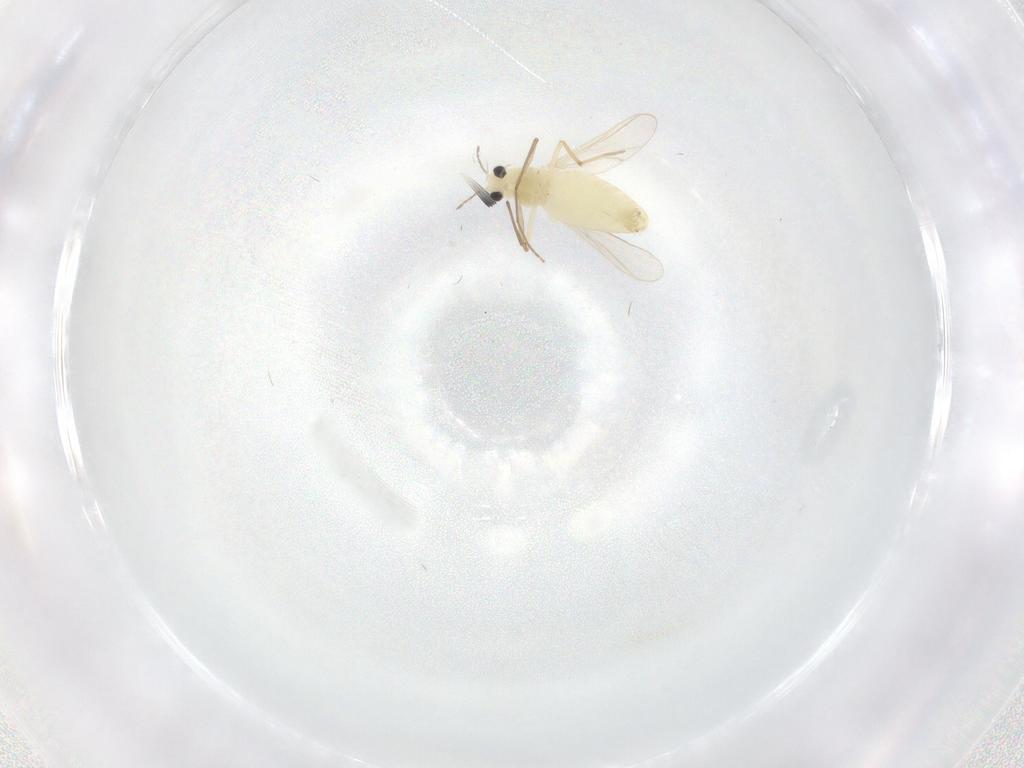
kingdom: Animalia
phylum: Arthropoda
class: Insecta
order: Diptera
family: Chironomidae
